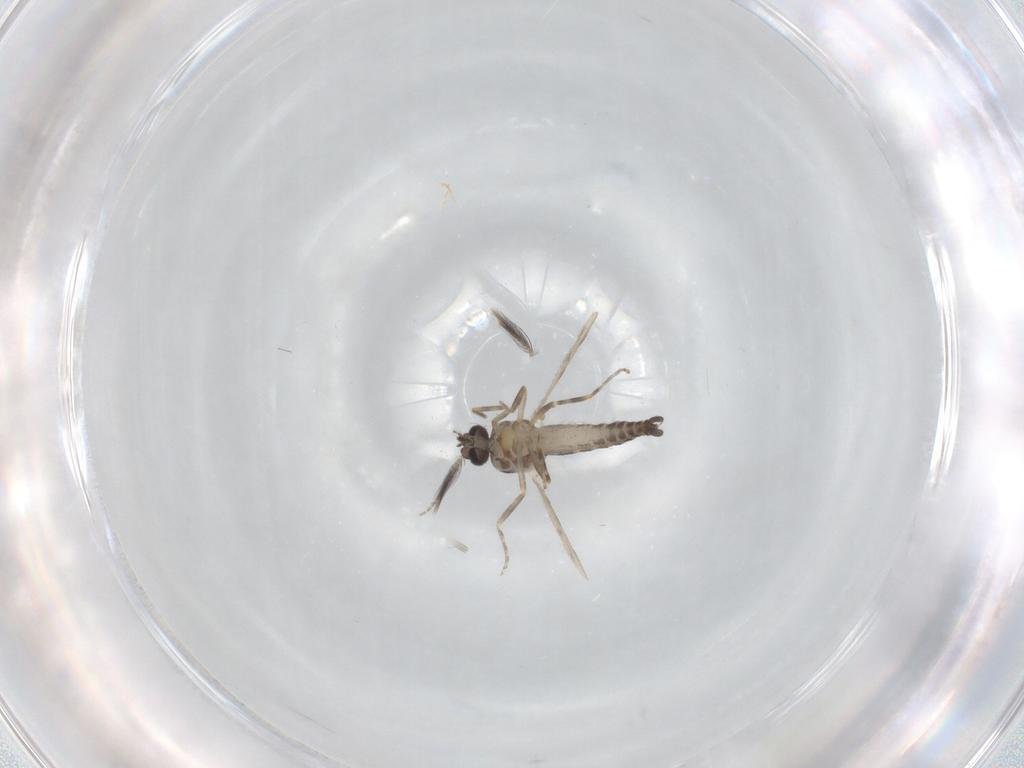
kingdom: Animalia
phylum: Arthropoda
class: Insecta
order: Diptera
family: Ceratopogonidae
